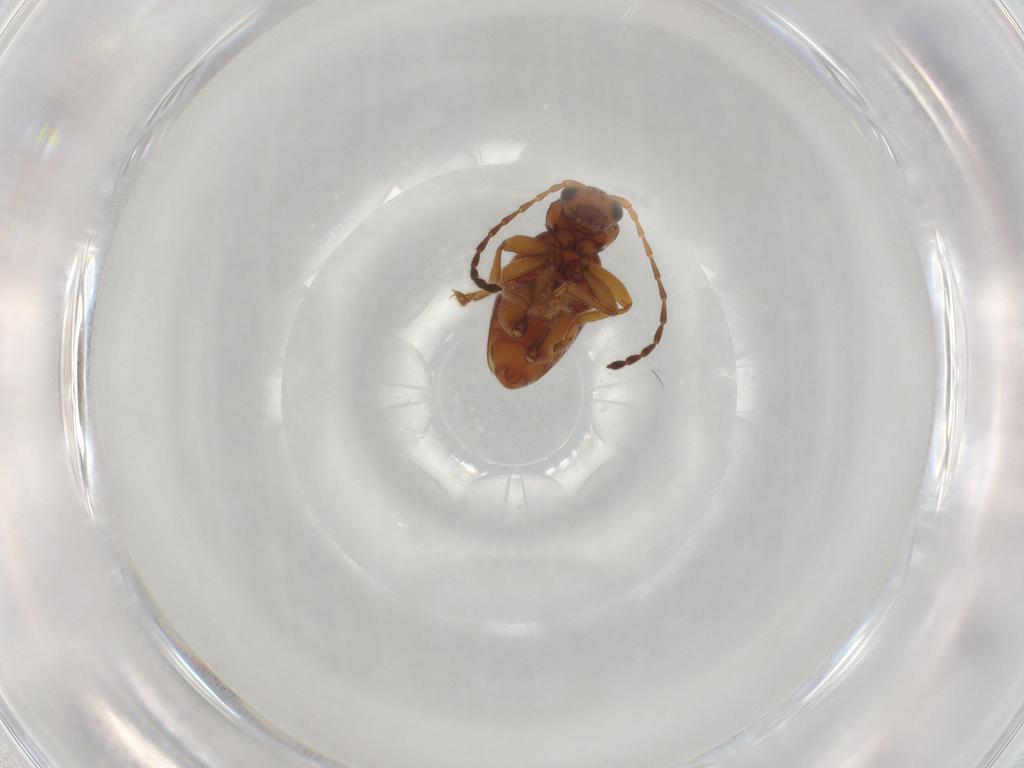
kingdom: Animalia
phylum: Arthropoda
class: Insecta
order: Coleoptera
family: Chrysomelidae
